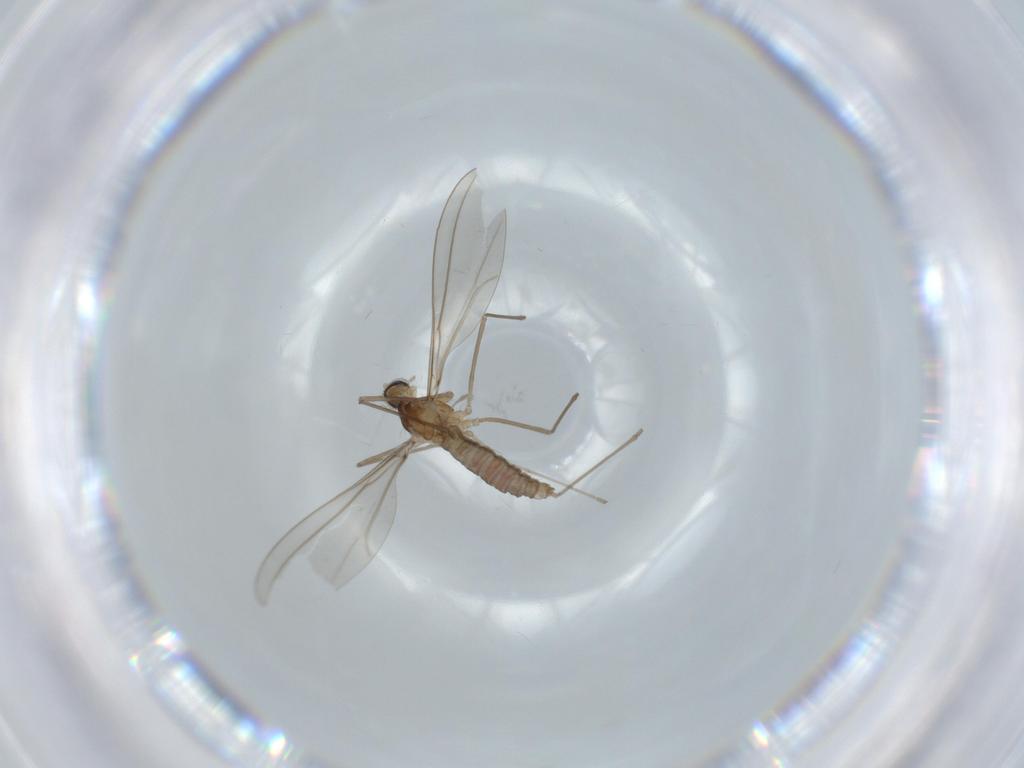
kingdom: Animalia
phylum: Arthropoda
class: Insecta
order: Diptera
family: Cecidomyiidae
